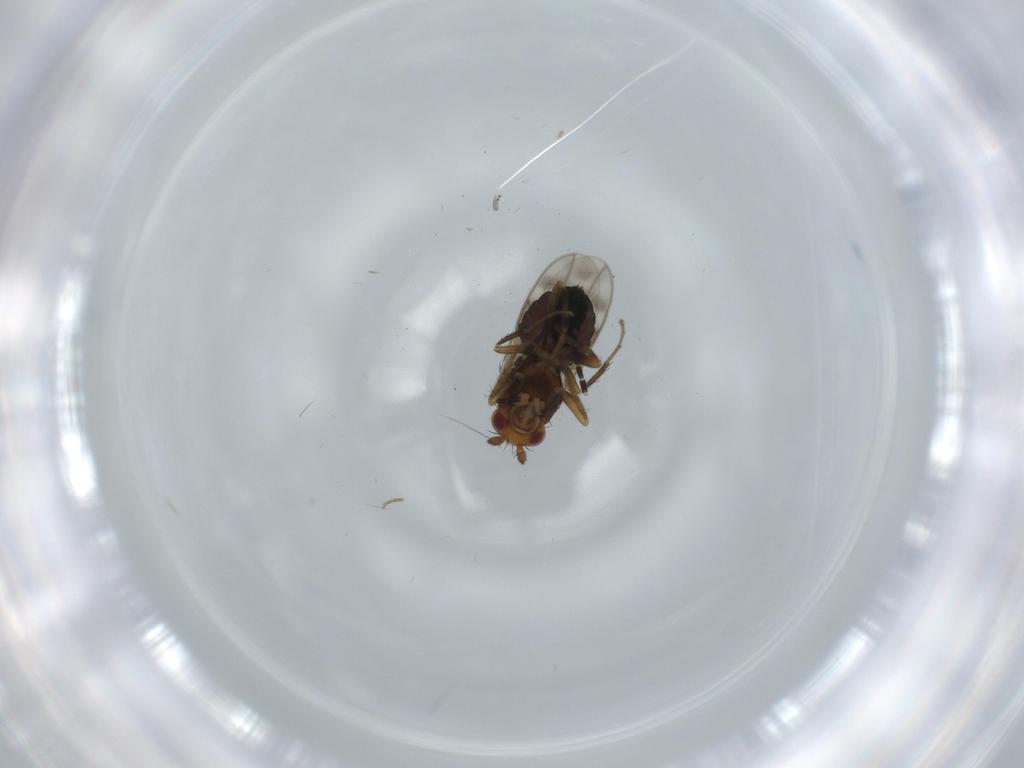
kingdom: Animalia
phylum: Arthropoda
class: Insecta
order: Diptera
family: Sphaeroceridae
